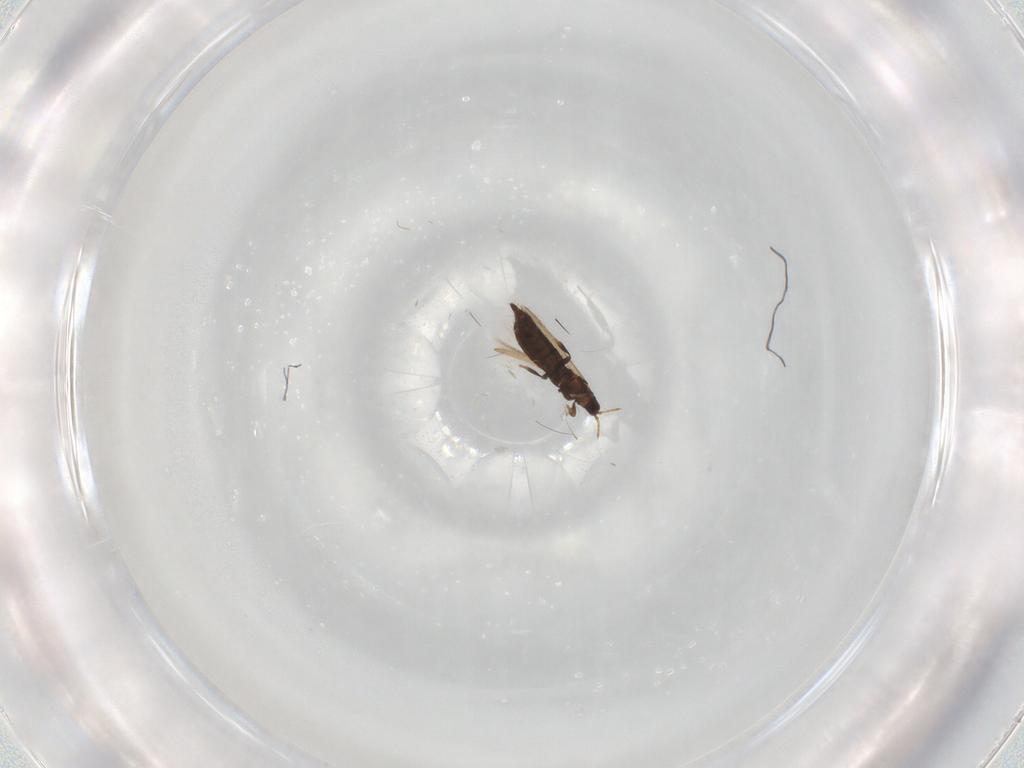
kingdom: Animalia
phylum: Arthropoda
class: Insecta
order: Thysanoptera
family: Thripidae
